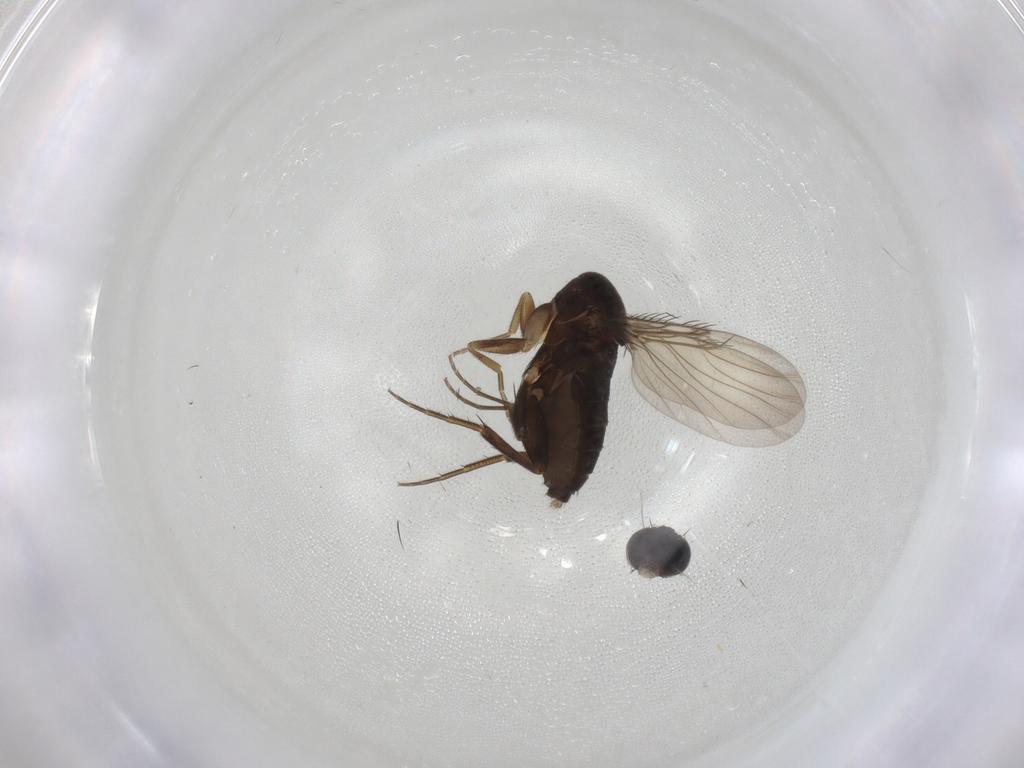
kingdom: Animalia
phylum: Arthropoda
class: Insecta
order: Diptera
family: Phoridae
